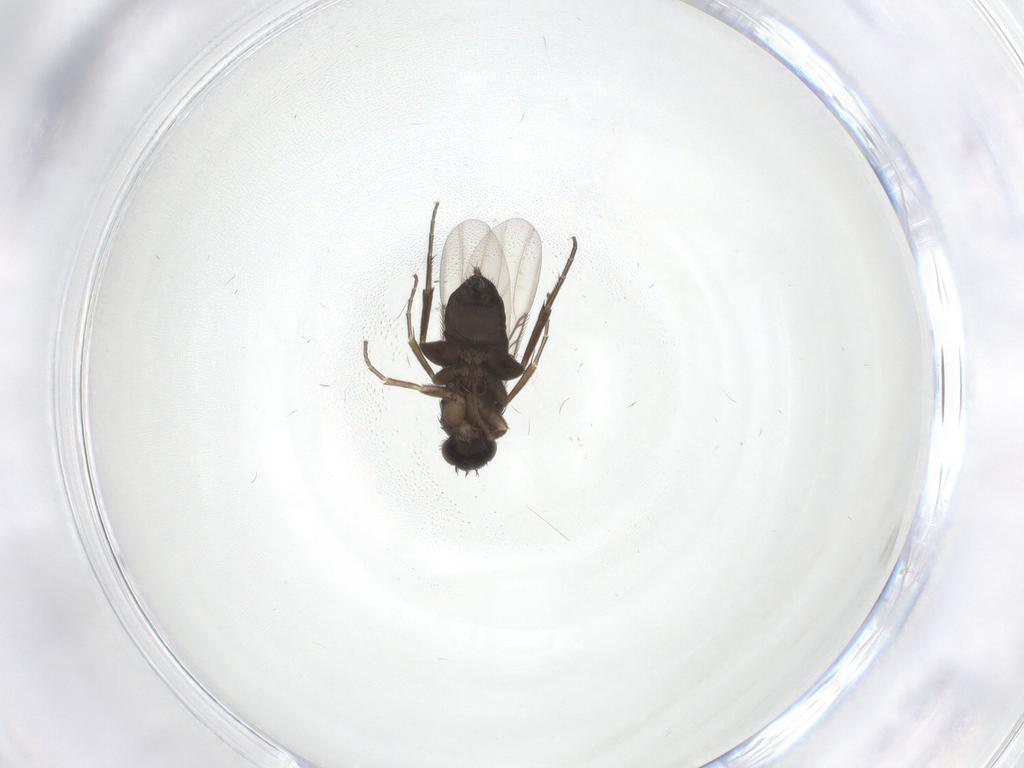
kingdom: Animalia
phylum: Arthropoda
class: Insecta
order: Diptera
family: Phoridae
